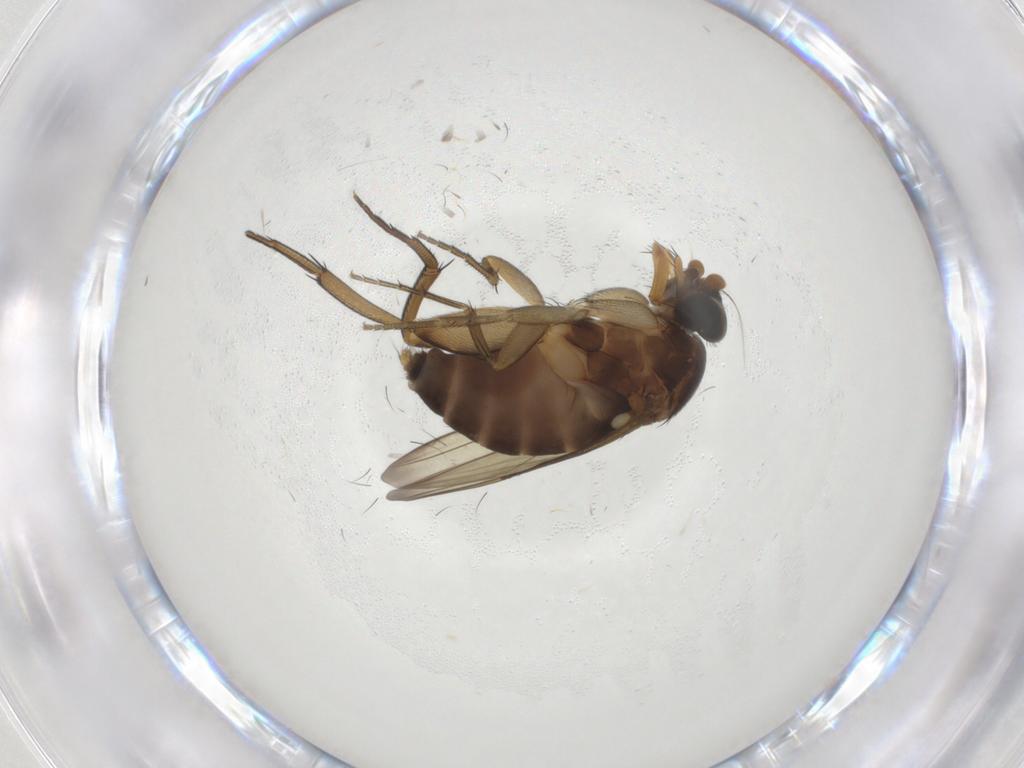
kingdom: Animalia
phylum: Arthropoda
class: Insecta
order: Diptera
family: Phoridae
